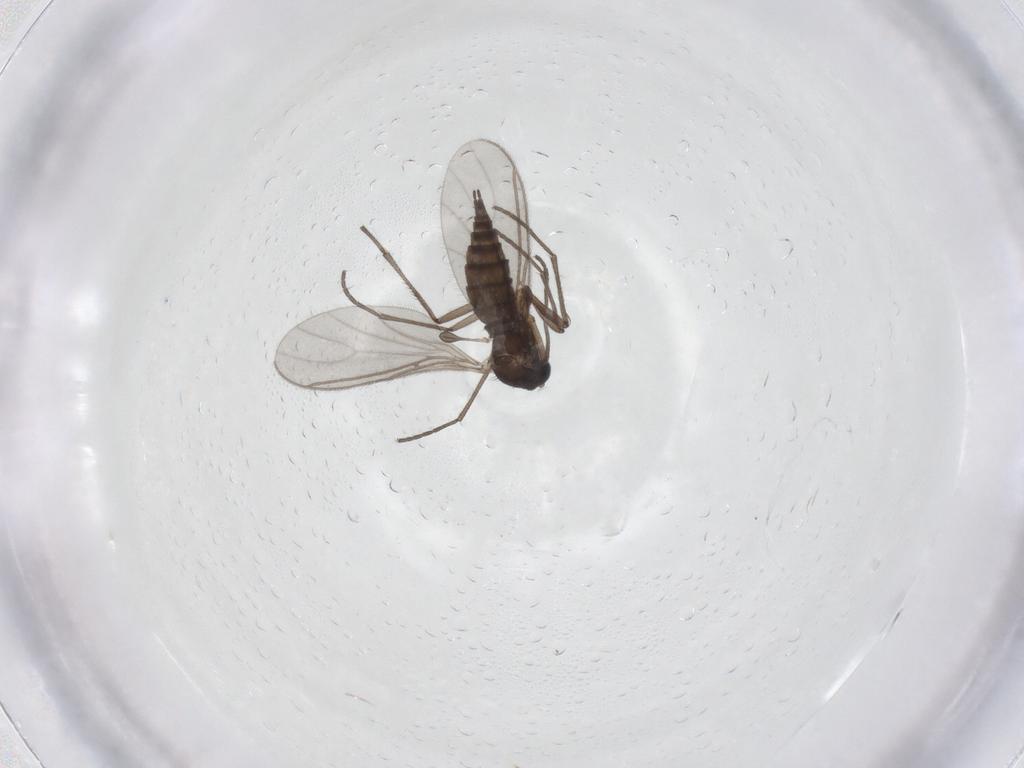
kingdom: Animalia
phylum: Arthropoda
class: Insecta
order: Diptera
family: Sciaridae
